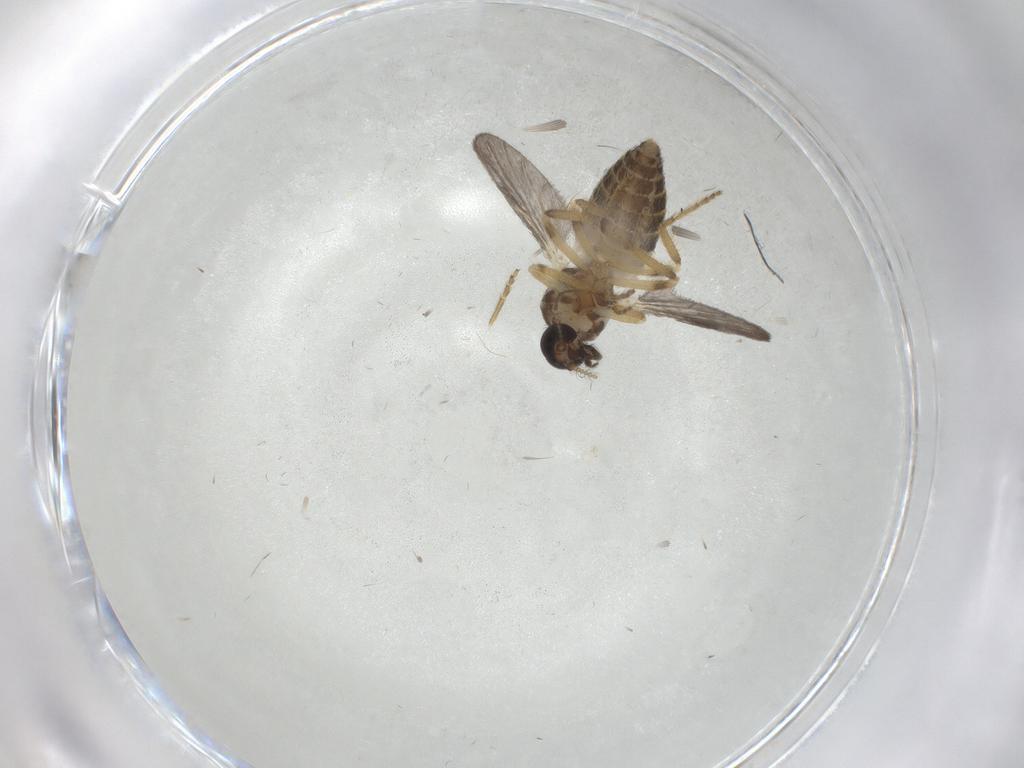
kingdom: Animalia
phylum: Arthropoda
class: Insecta
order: Diptera
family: Ceratopogonidae
